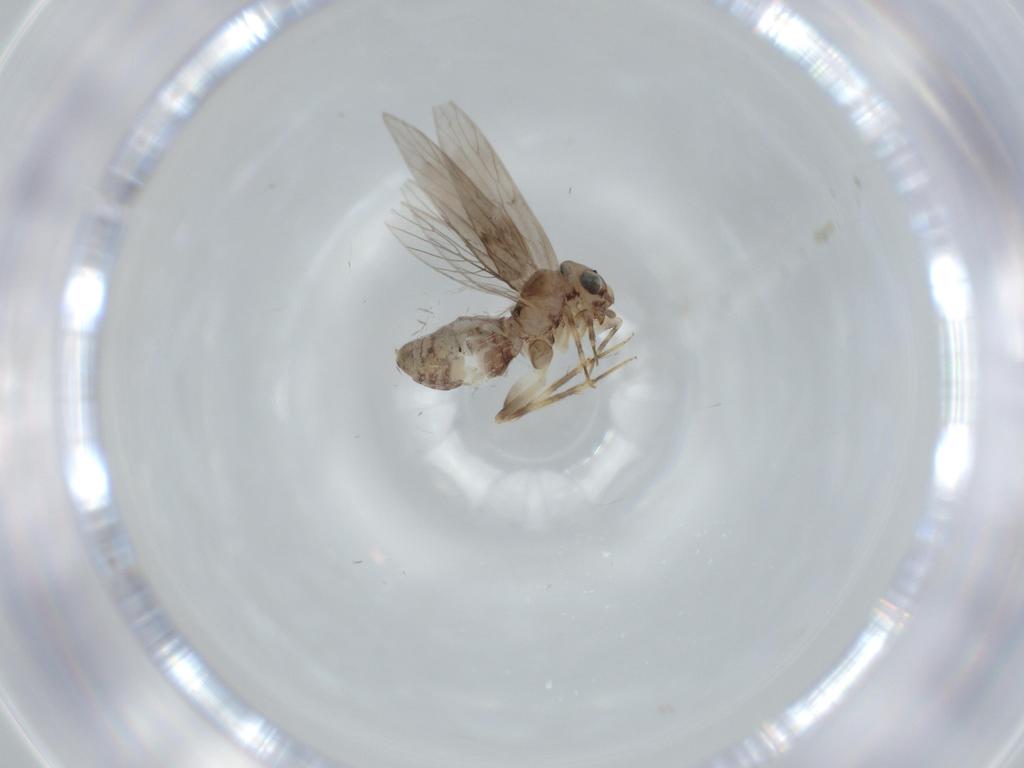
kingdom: Animalia
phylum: Arthropoda
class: Insecta
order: Psocodea
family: Lepidopsocidae
